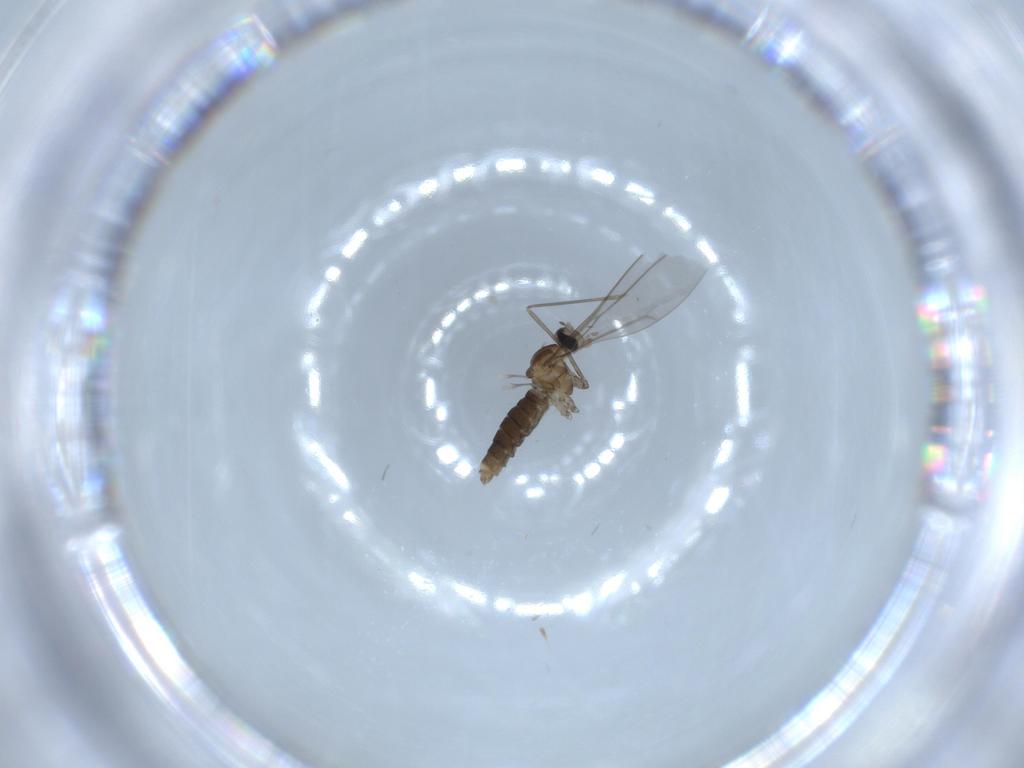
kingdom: Animalia
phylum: Arthropoda
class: Insecta
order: Diptera
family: Cecidomyiidae
